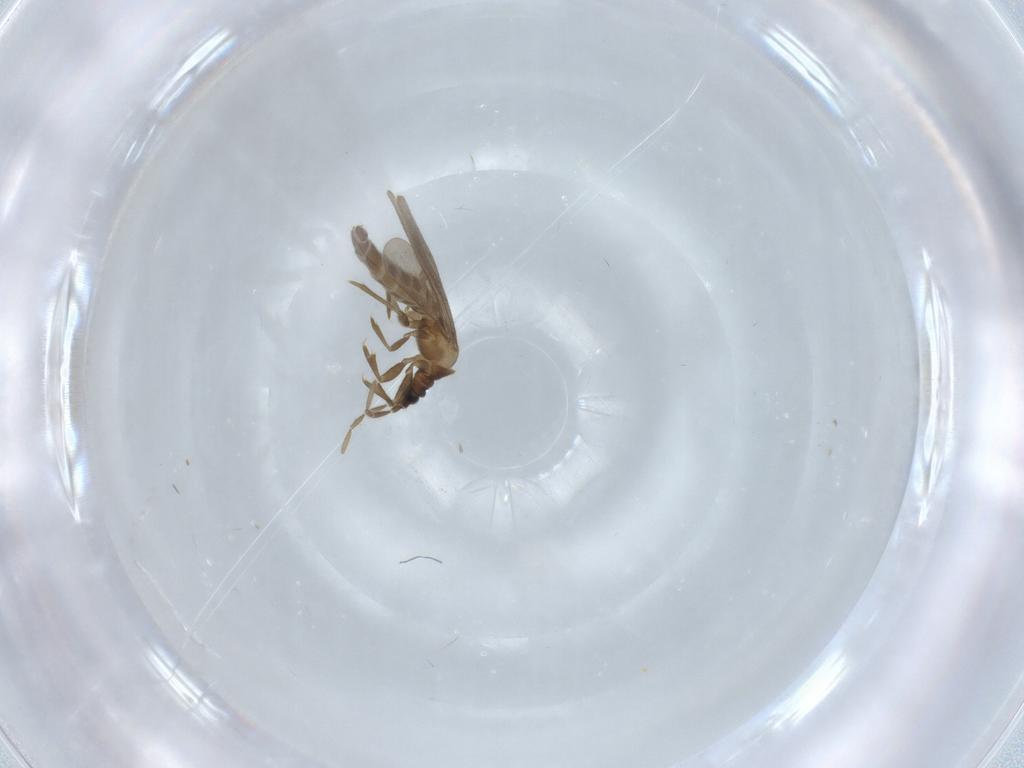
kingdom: Animalia
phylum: Arthropoda
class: Insecta
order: Hemiptera
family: Enicocephalidae
